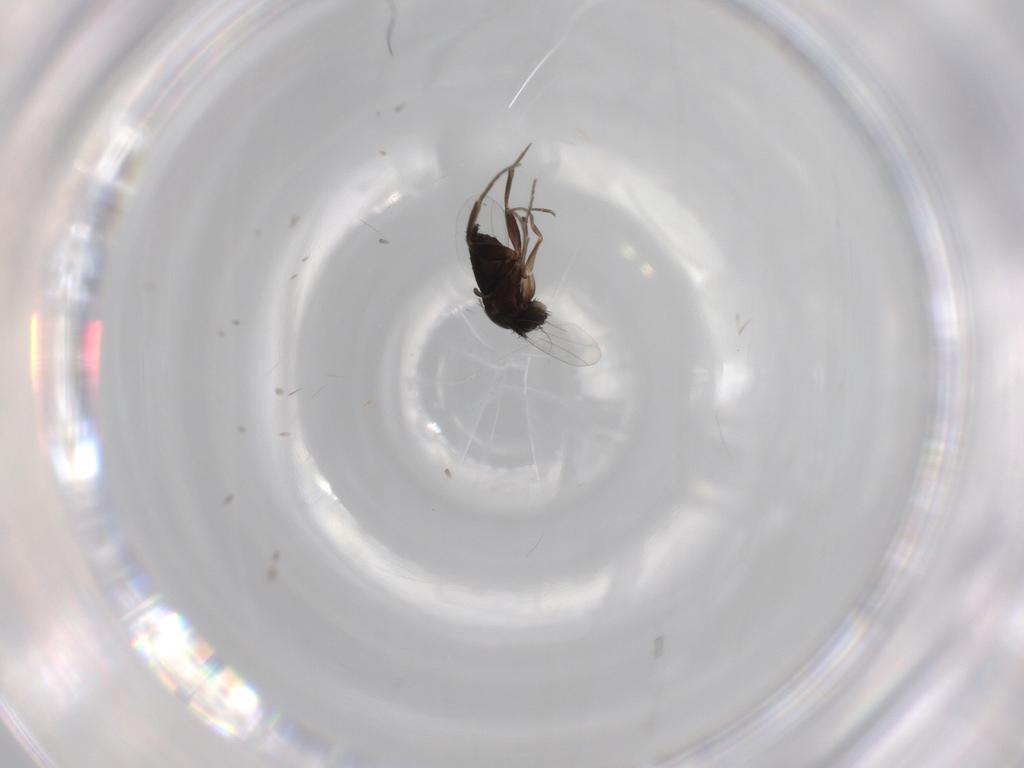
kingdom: Animalia
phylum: Arthropoda
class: Insecta
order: Diptera
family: Phoridae
